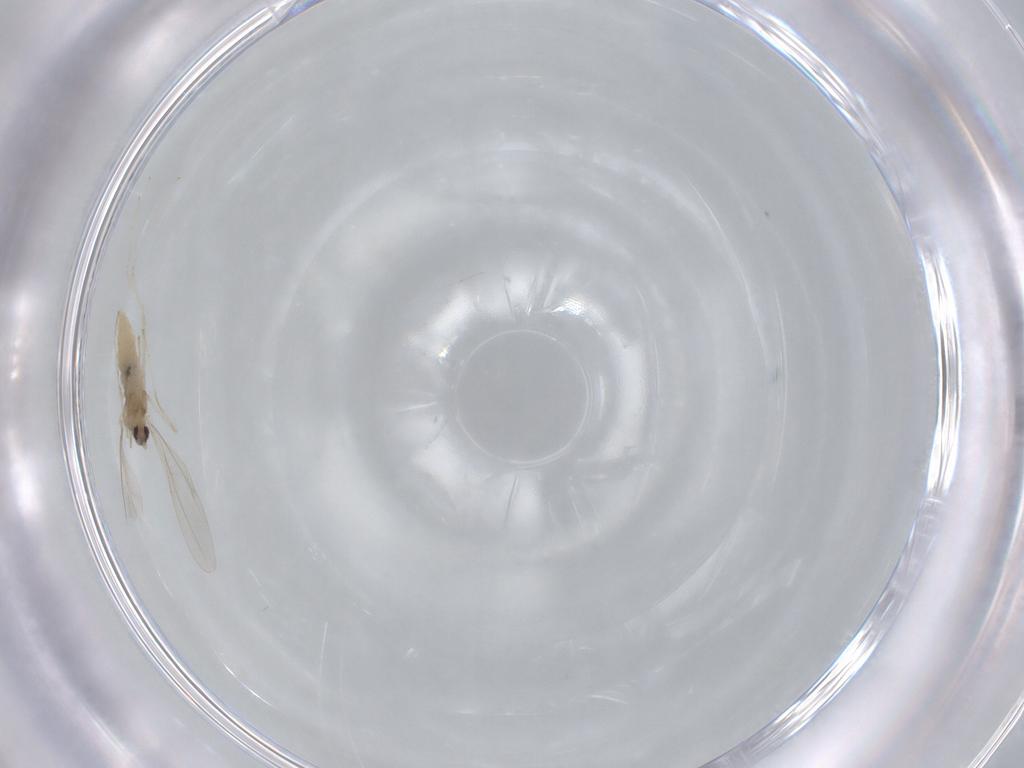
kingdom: Animalia
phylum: Arthropoda
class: Insecta
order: Diptera
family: Cecidomyiidae
